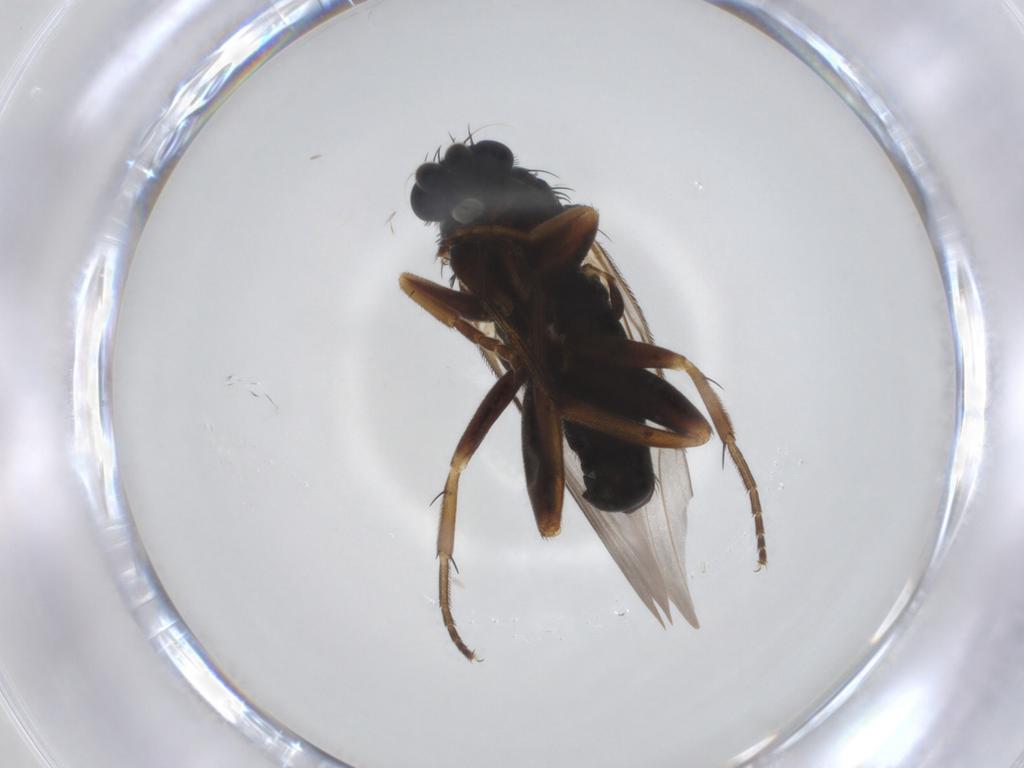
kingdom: Animalia
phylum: Arthropoda
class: Insecta
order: Diptera
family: Phoridae
